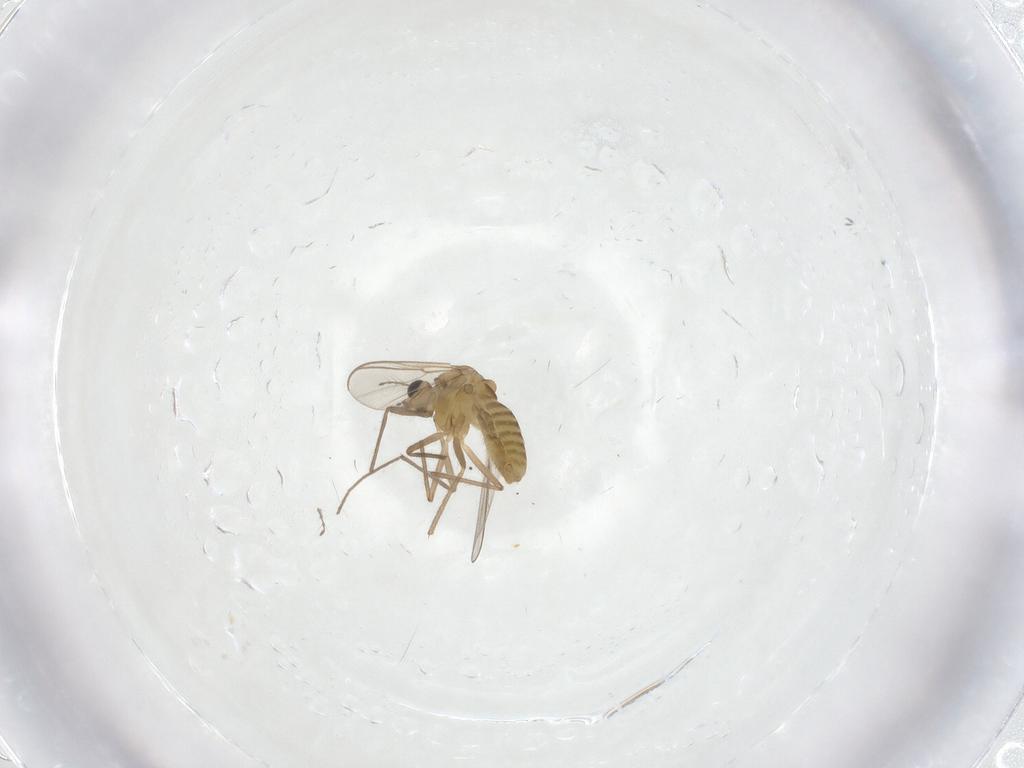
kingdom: Animalia
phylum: Arthropoda
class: Insecta
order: Diptera
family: Chironomidae
